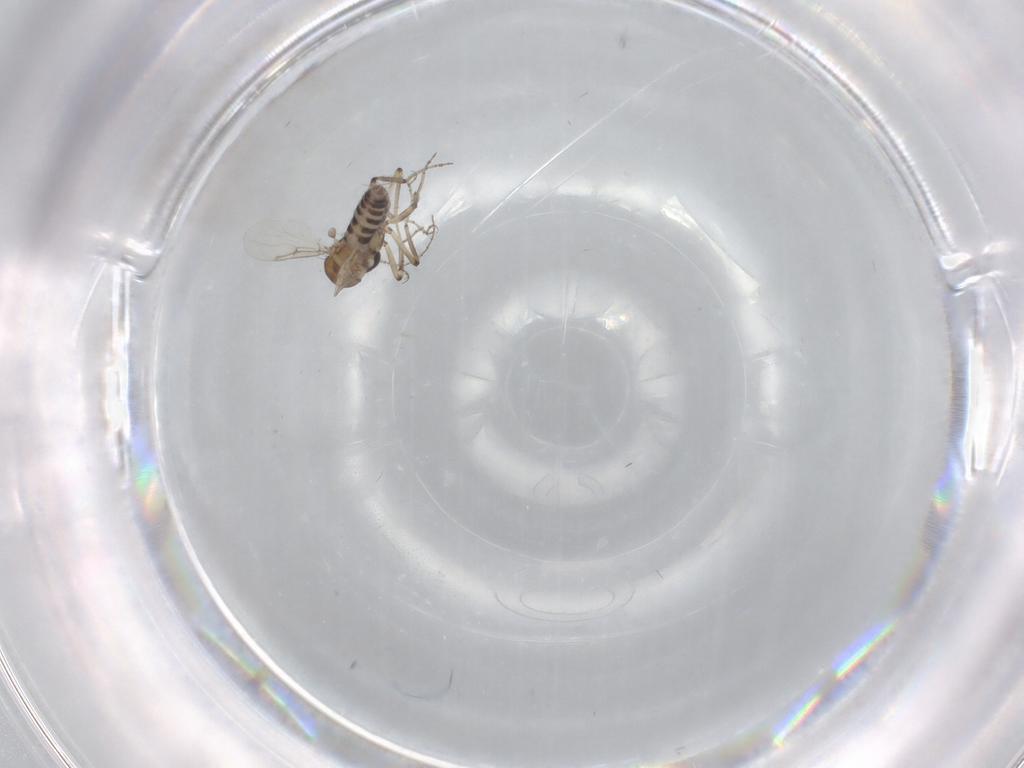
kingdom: Animalia
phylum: Arthropoda
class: Insecta
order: Diptera
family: Ceratopogonidae
